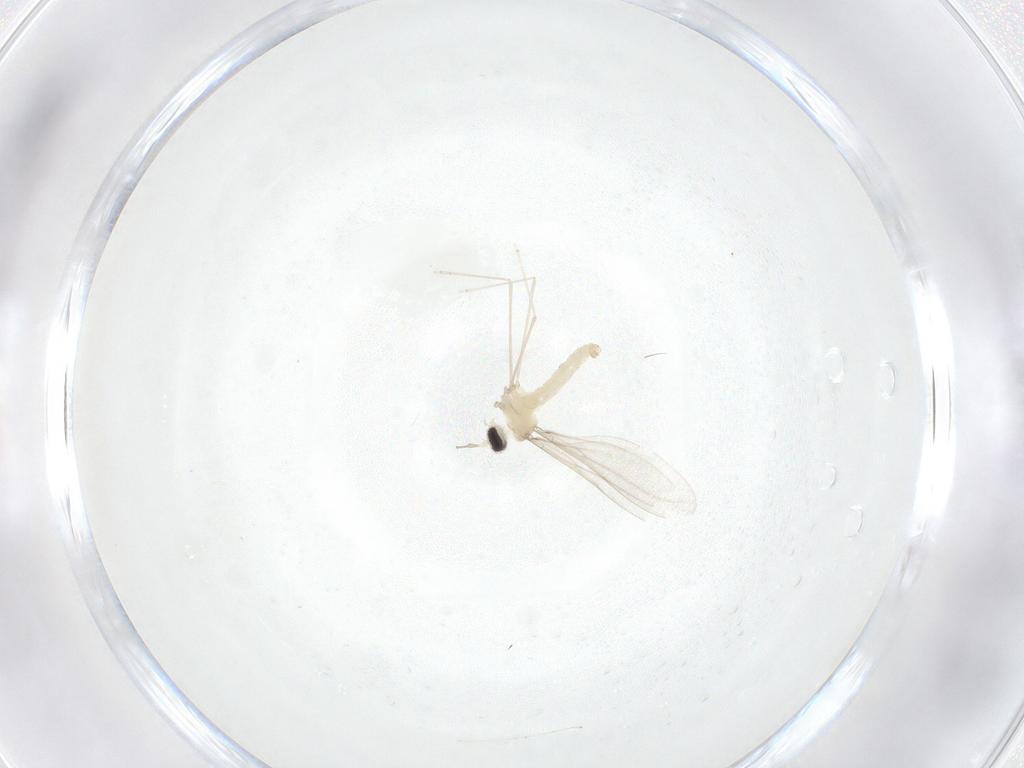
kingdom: Animalia
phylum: Arthropoda
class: Insecta
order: Diptera
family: Cecidomyiidae
